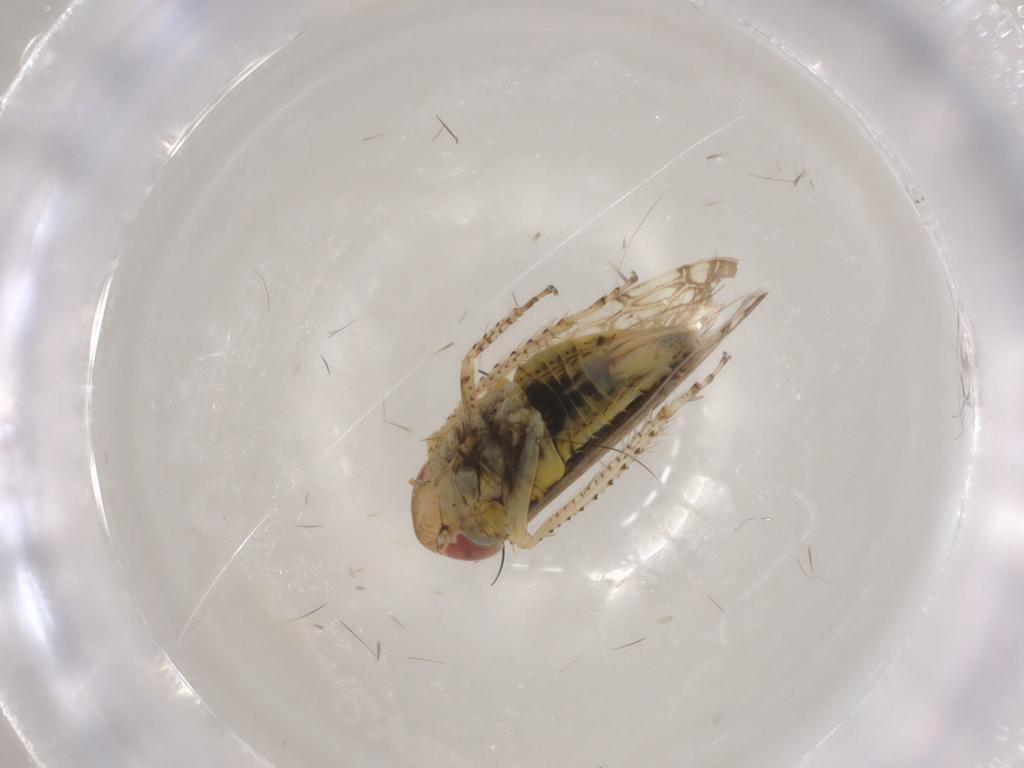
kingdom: Animalia
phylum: Arthropoda
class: Insecta
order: Hemiptera
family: Cicadellidae
